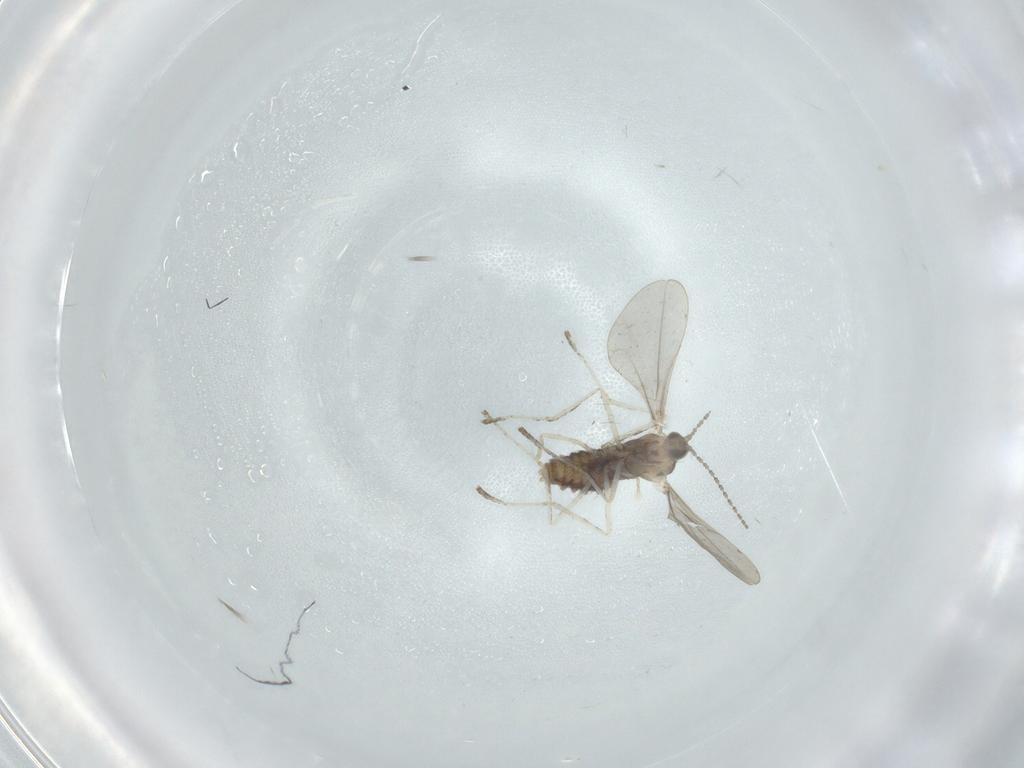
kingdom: Animalia
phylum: Arthropoda
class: Insecta
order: Diptera
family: Cecidomyiidae
